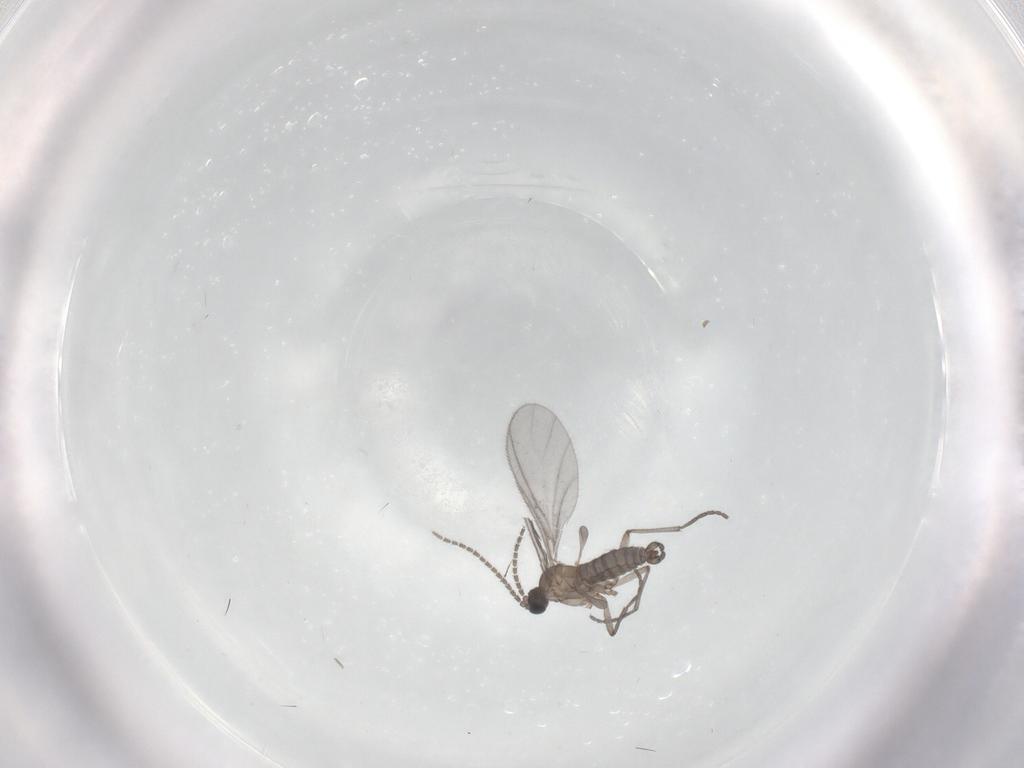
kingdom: Animalia
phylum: Arthropoda
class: Insecta
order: Diptera
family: Sciaridae
